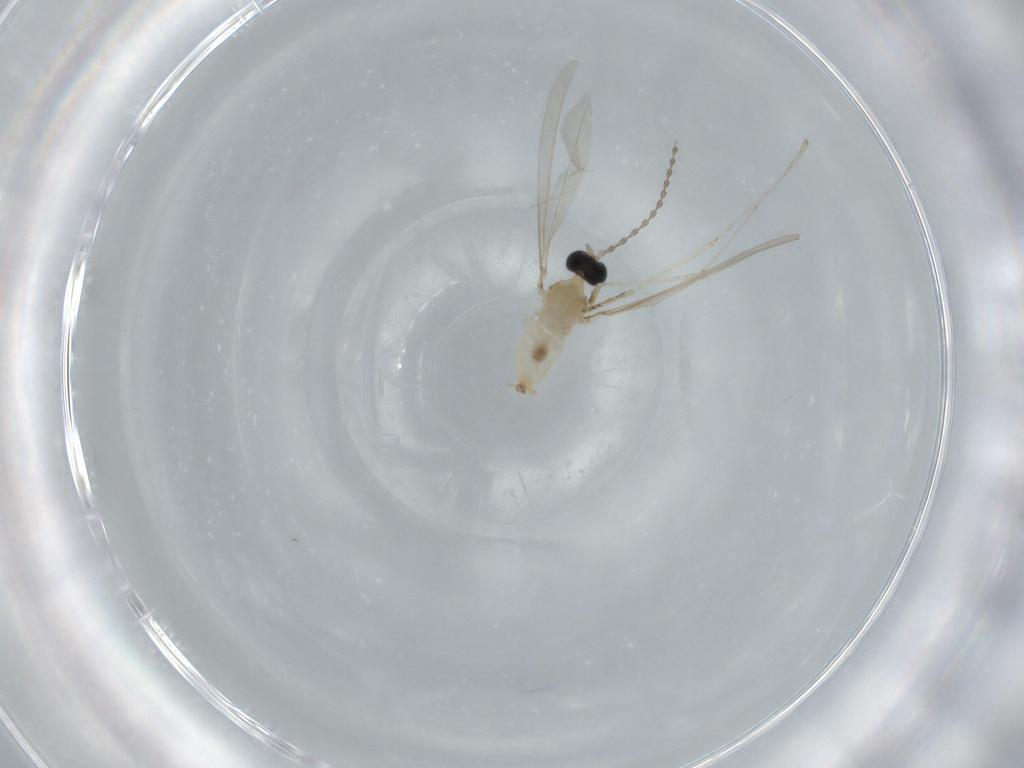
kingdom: Animalia
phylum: Arthropoda
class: Insecta
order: Diptera
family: Cecidomyiidae
